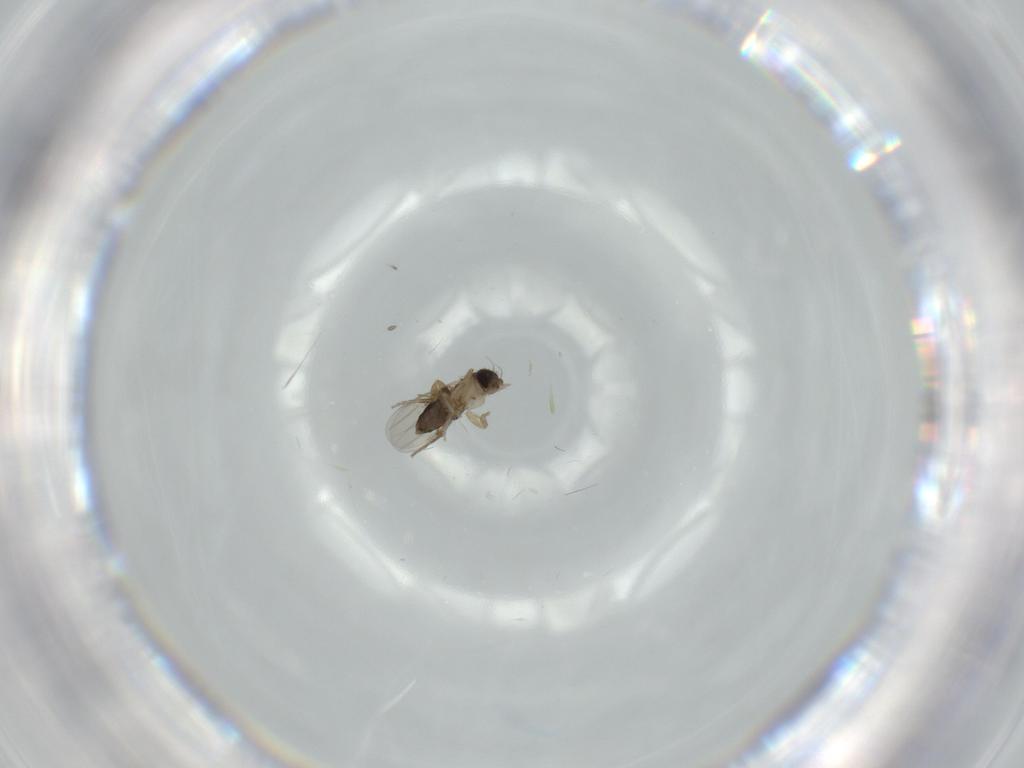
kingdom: Animalia
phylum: Arthropoda
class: Insecta
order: Diptera
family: Phoridae
